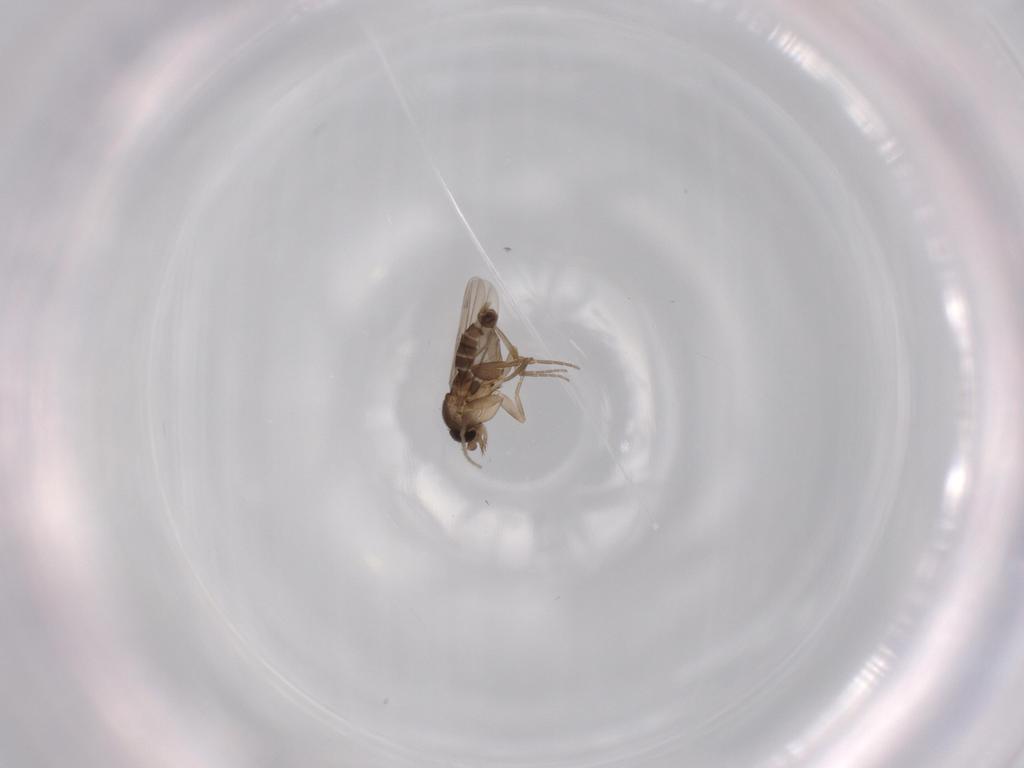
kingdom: Animalia
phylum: Arthropoda
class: Insecta
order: Diptera
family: Phoridae
